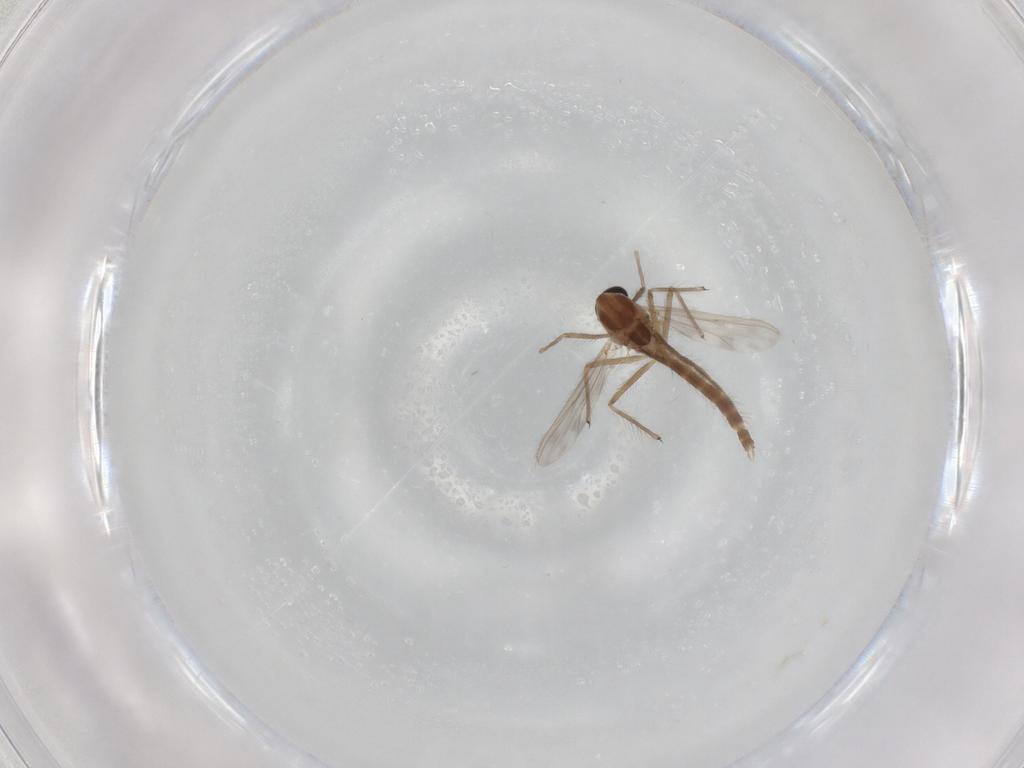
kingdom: Animalia
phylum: Arthropoda
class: Insecta
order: Diptera
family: Chironomidae
